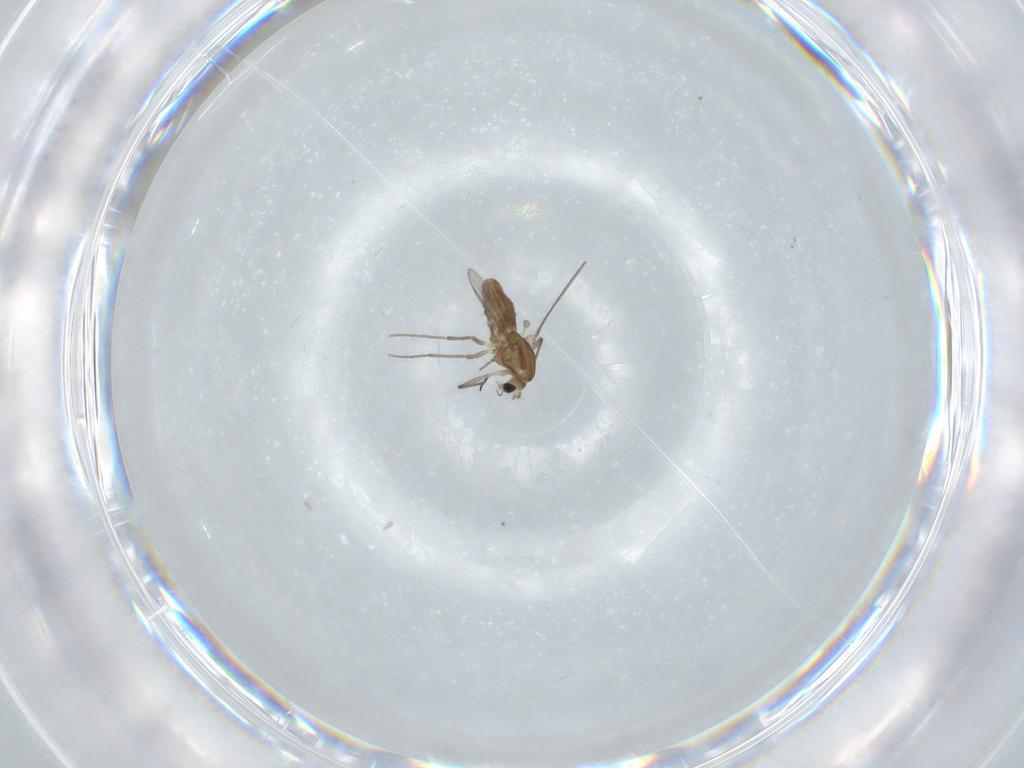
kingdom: Animalia
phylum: Arthropoda
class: Insecta
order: Diptera
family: Chironomidae
